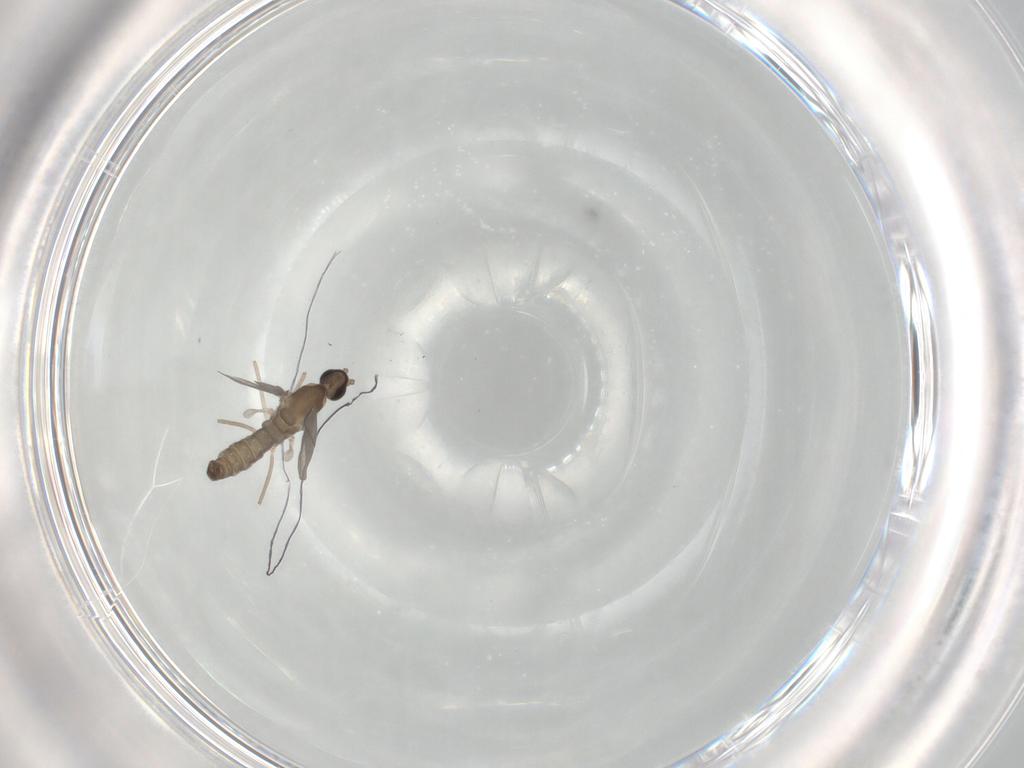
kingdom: Animalia
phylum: Arthropoda
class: Insecta
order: Diptera
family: Cecidomyiidae
